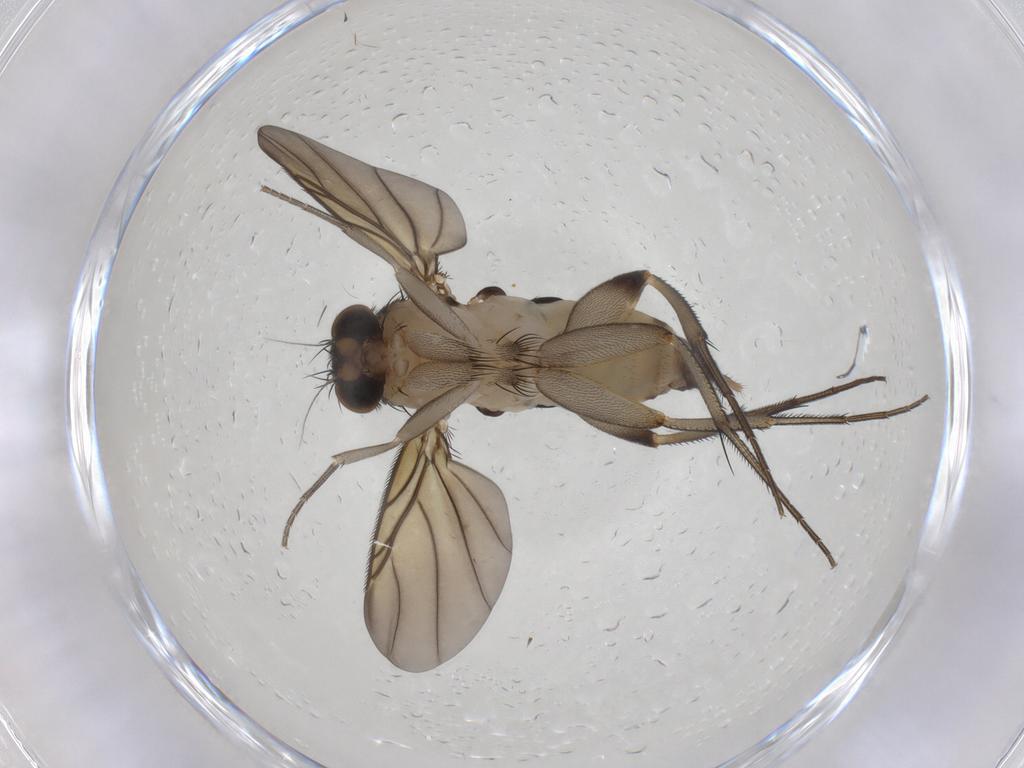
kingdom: Animalia
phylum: Arthropoda
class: Insecta
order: Diptera
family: Phoridae
